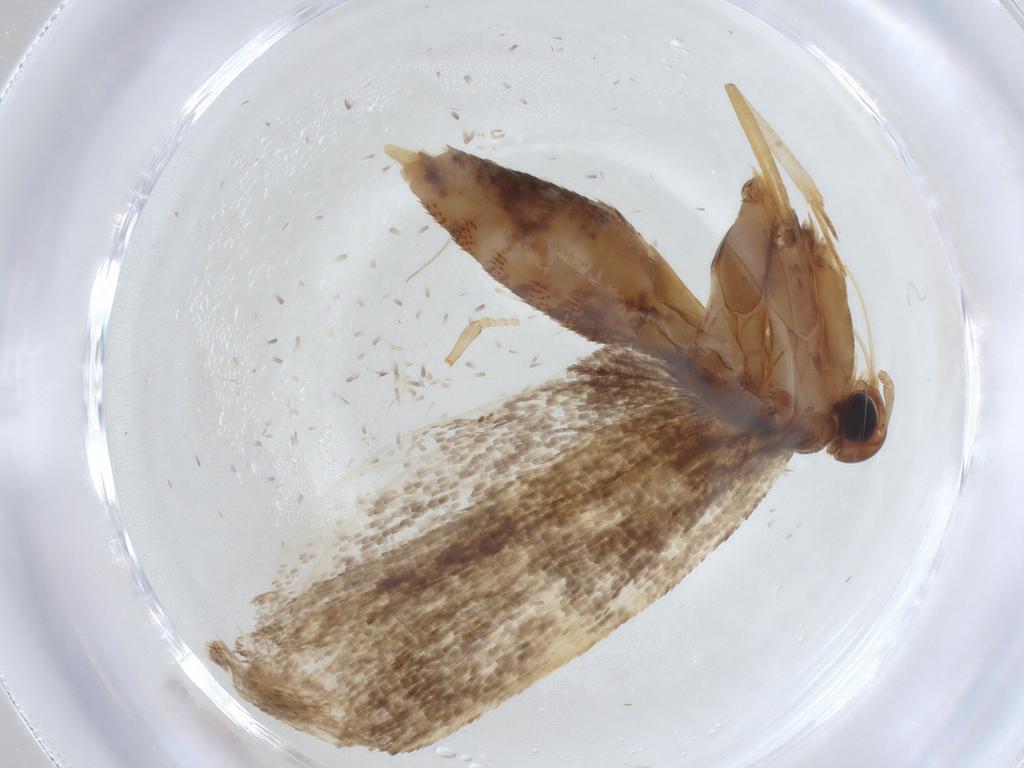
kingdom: Animalia
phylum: Arthropoda
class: Insecta
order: Lepidoptera
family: Lecithoceridae
